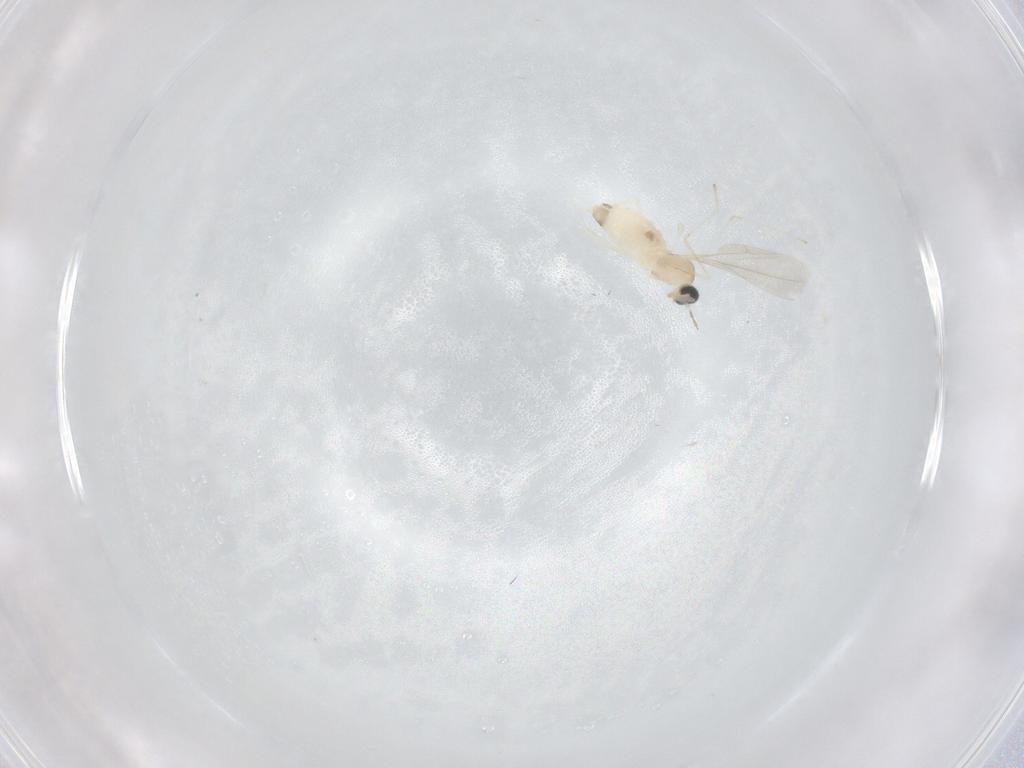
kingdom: Animalia
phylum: Arthropoda
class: Insecta
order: Diptera
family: Cecidomyiidae
